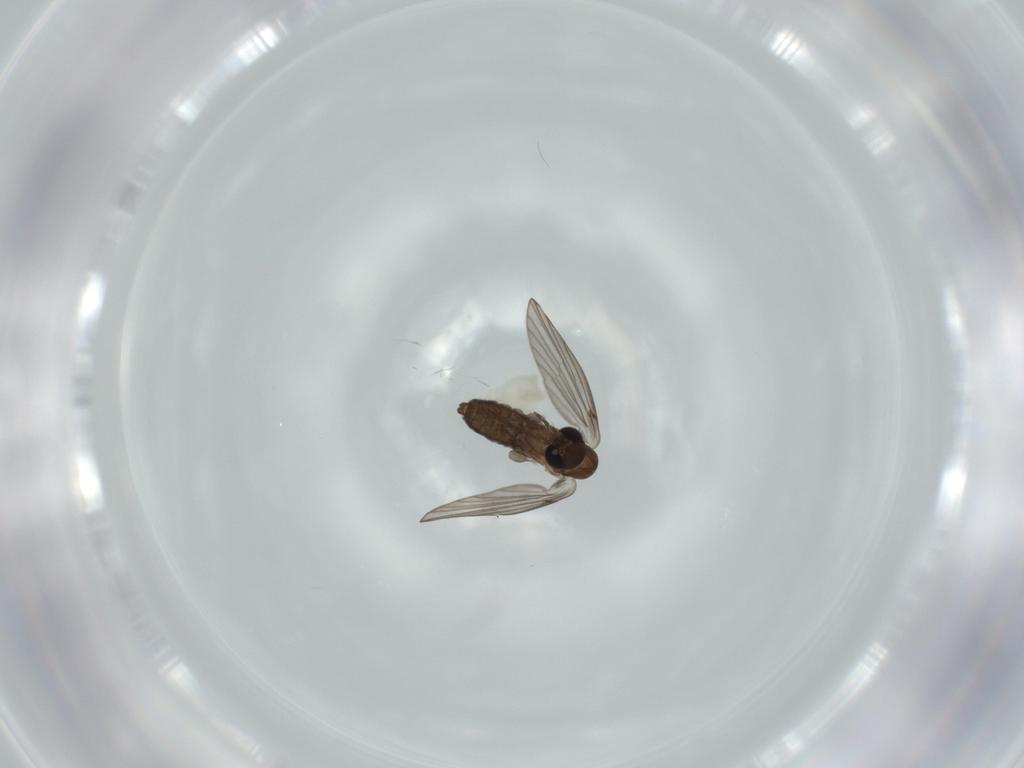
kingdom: Animalia
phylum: Arthropoda
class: Insecta
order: Diptera
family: Psychodidae
